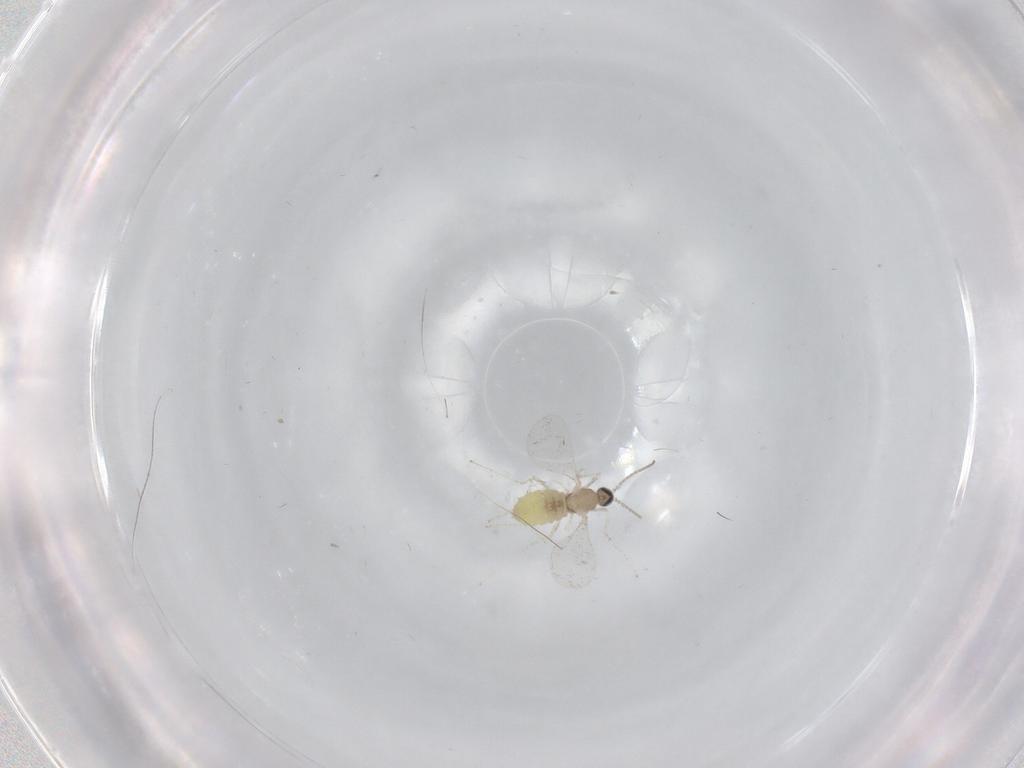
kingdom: Animalia
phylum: Arthropoda
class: Insecta
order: Diptera
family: Cecidomyiidae
